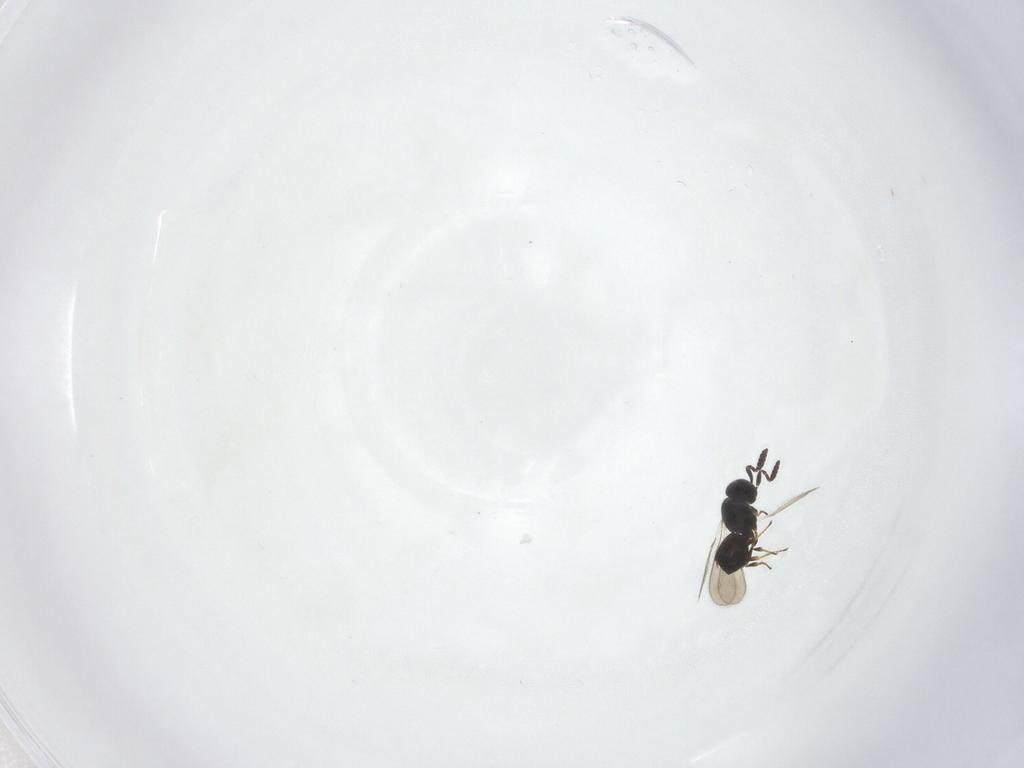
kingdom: Animalia
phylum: Arthropoda
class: Insecta
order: Hymenoptera
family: Scelionidae
